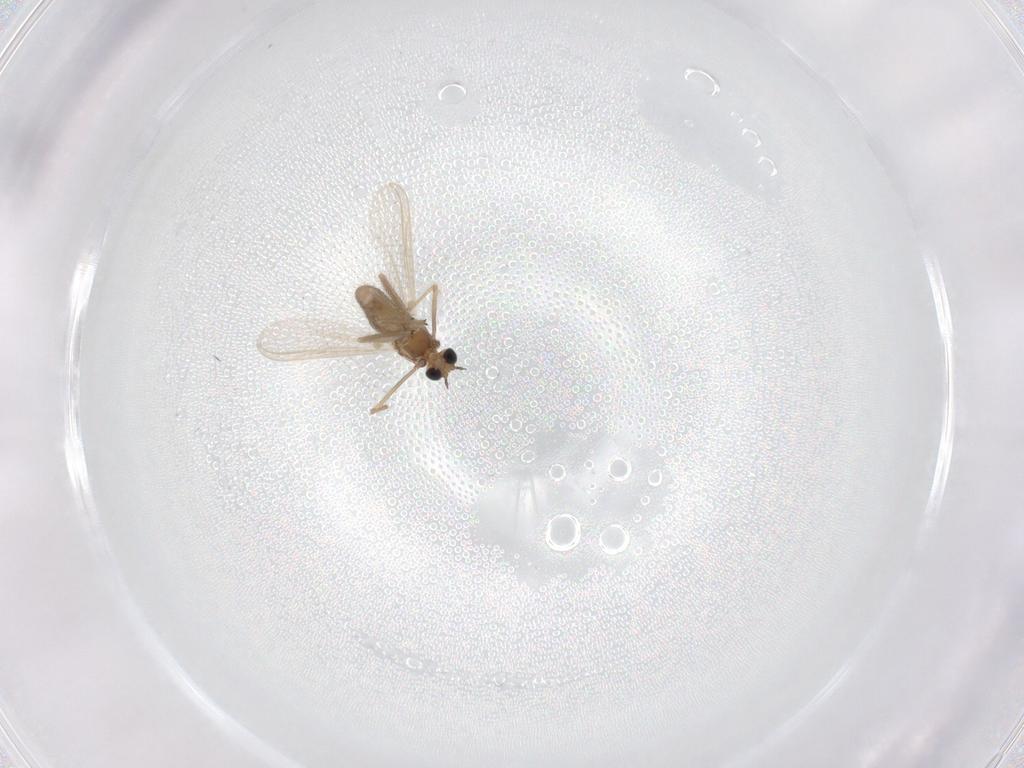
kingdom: Animalia
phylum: Arthropoda
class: Insecta
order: Diptera
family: Chironomidae
